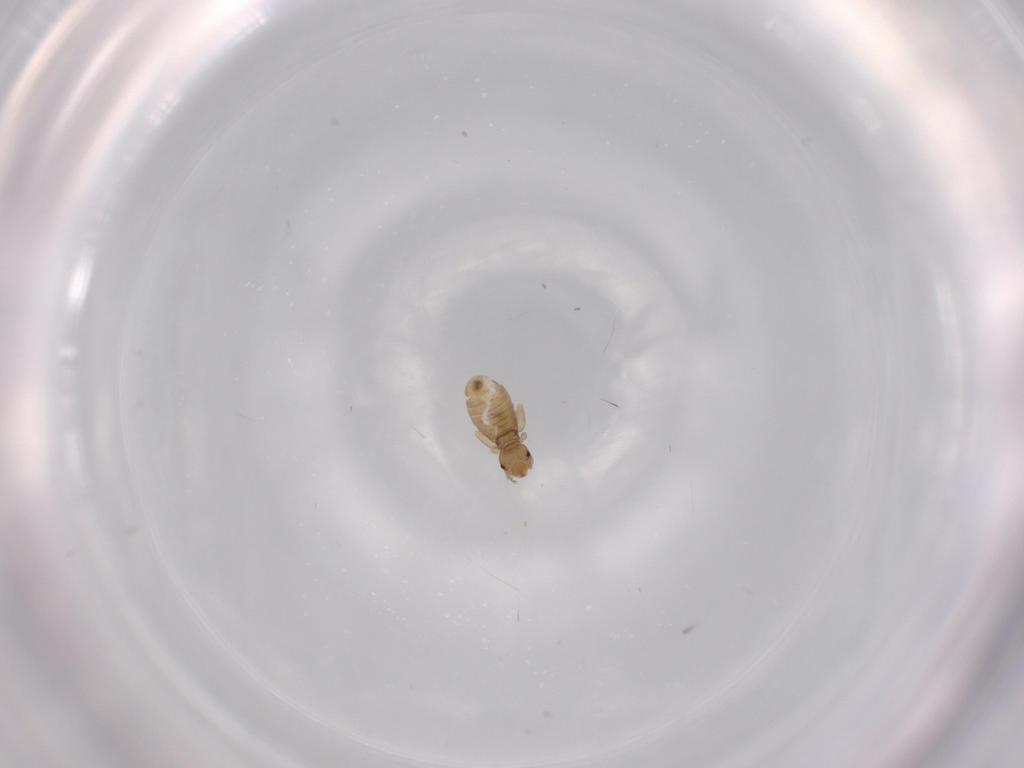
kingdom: Animalia
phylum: Arthropoda
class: Insecta
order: Psocodea
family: Liposcelididae
